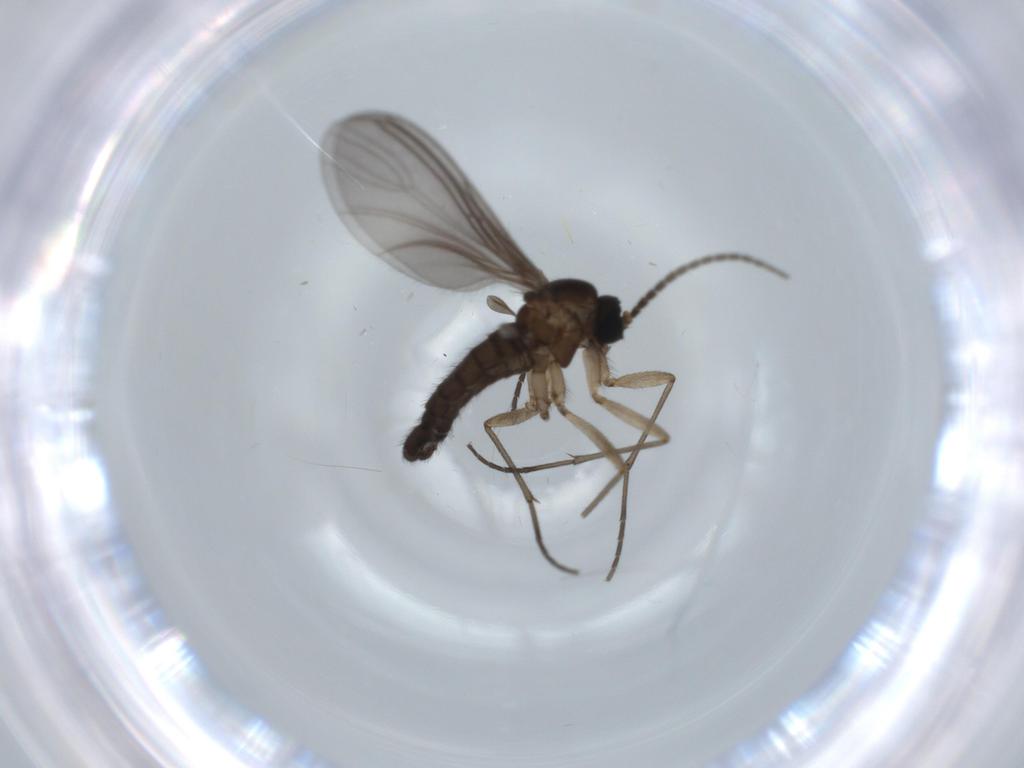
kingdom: Animalia
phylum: Arthropoda
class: Insecta
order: Diptera
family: Sciaridae
